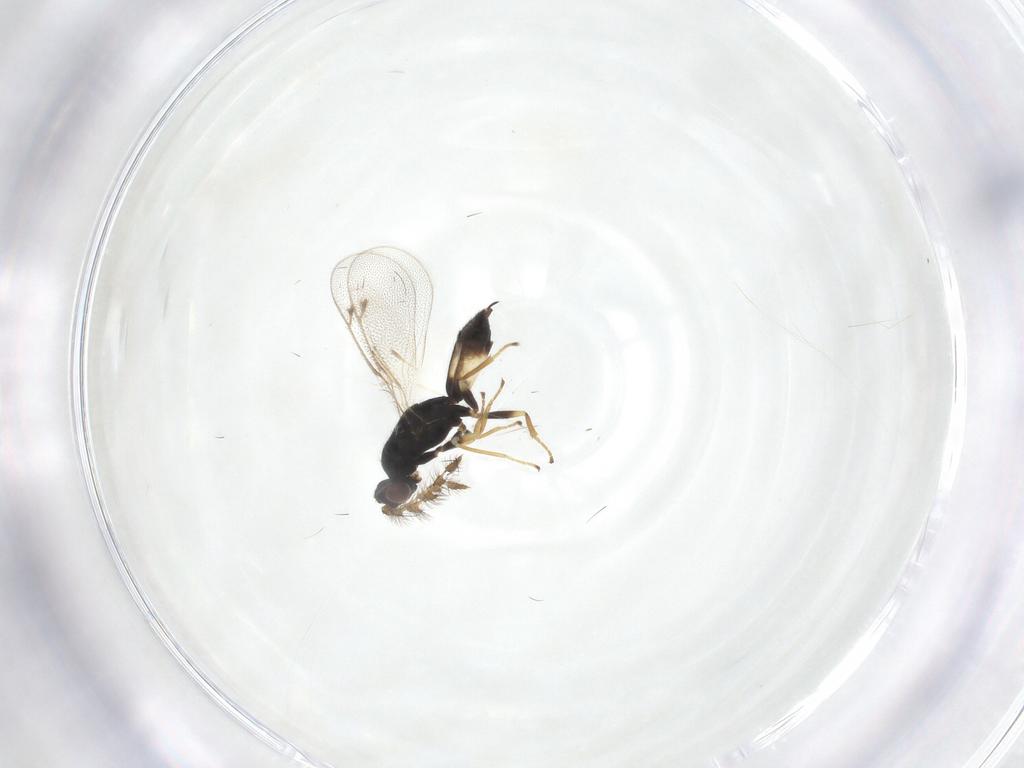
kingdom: Animalia
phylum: Arthropoda
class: Insecta
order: Hymenoptera
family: Eulophidae
